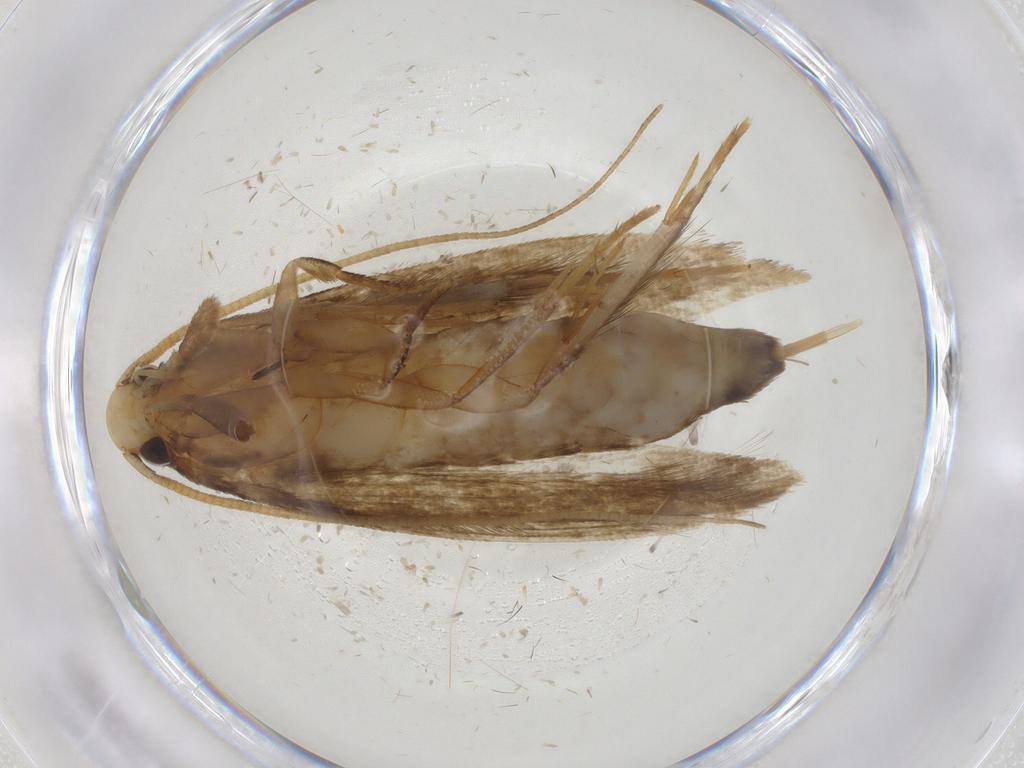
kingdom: Animalia
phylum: Arthropoda
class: Insecta
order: Lepidoptera
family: Tineidae
